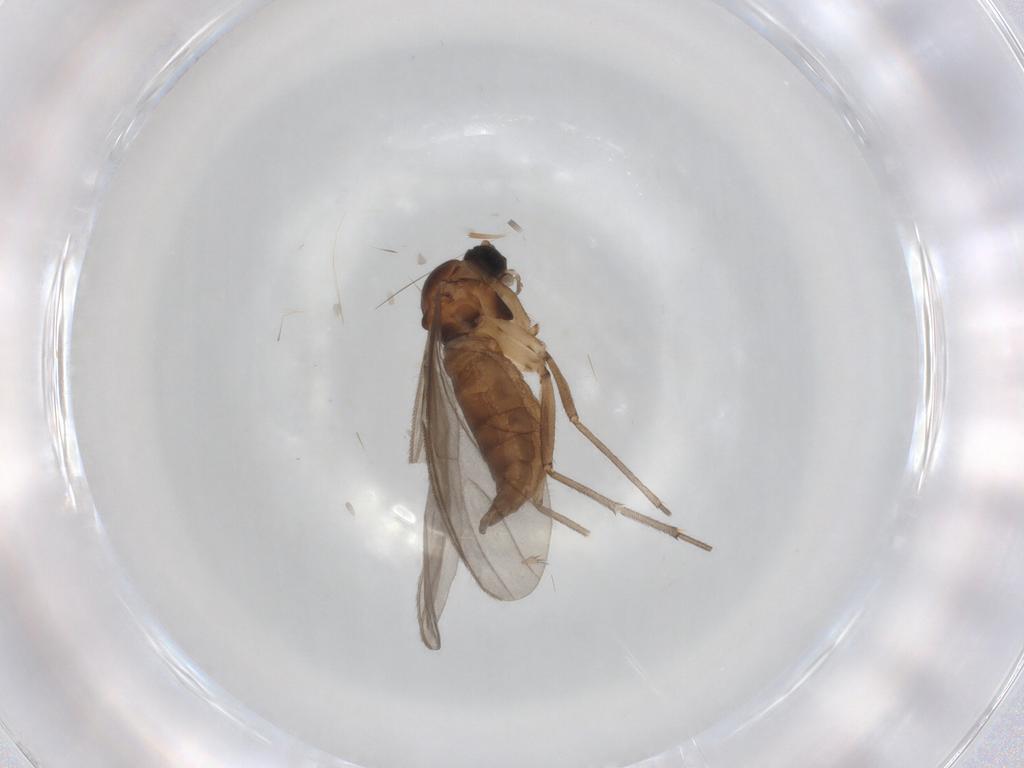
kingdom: Animalia
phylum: Arthropoda
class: Insecta
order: Diptera
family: Sciaridae
